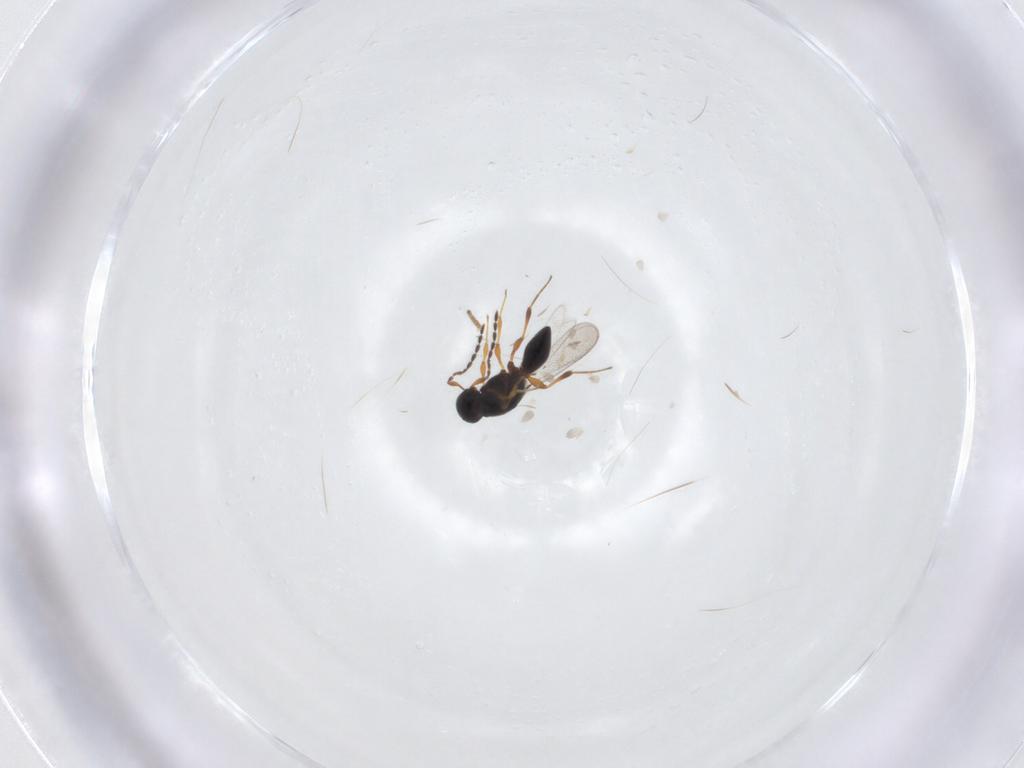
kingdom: Animalia
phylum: Arthropoda
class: Insecta
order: Hymenoptera
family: Platygastridae
